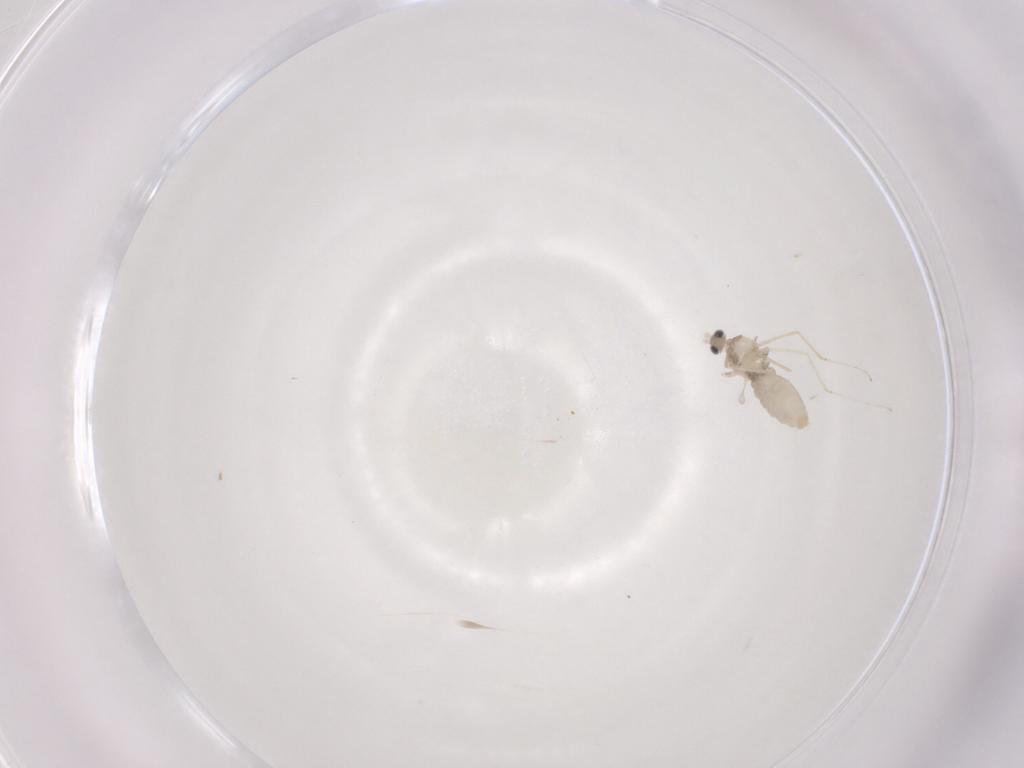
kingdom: Animalia
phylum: Arthropoda
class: Insecta
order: Diptera
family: Cecidomyiidae
